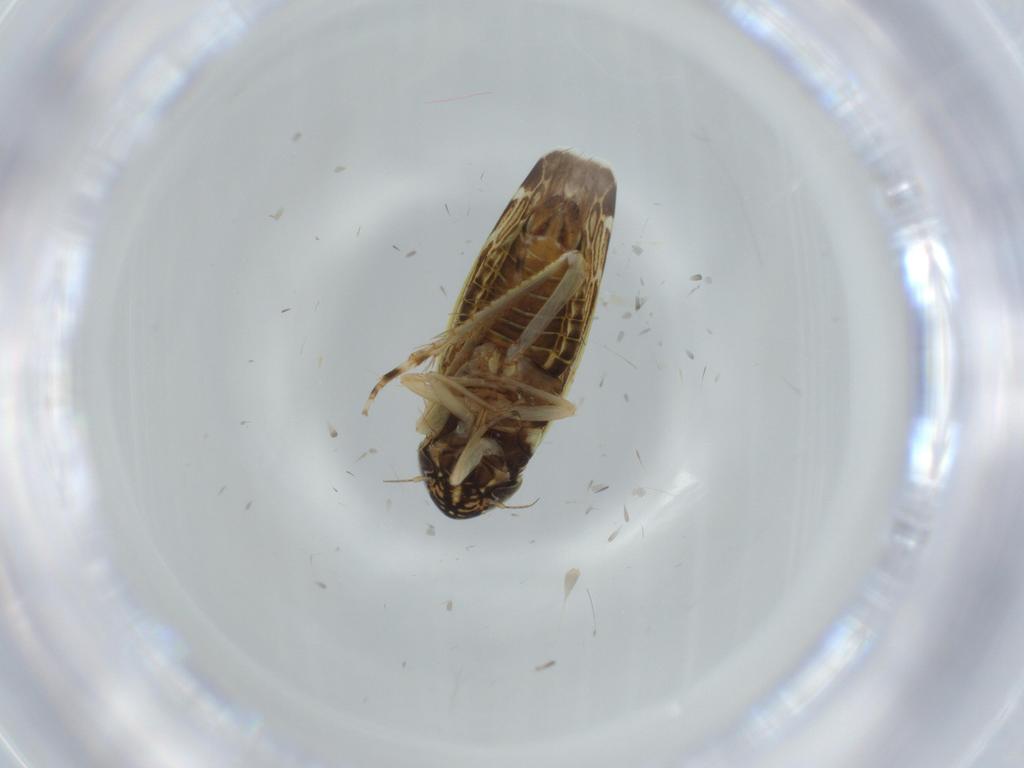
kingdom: Animalia
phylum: Arthropoda
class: Insecta
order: Hemiptera
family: Cicadellidae
